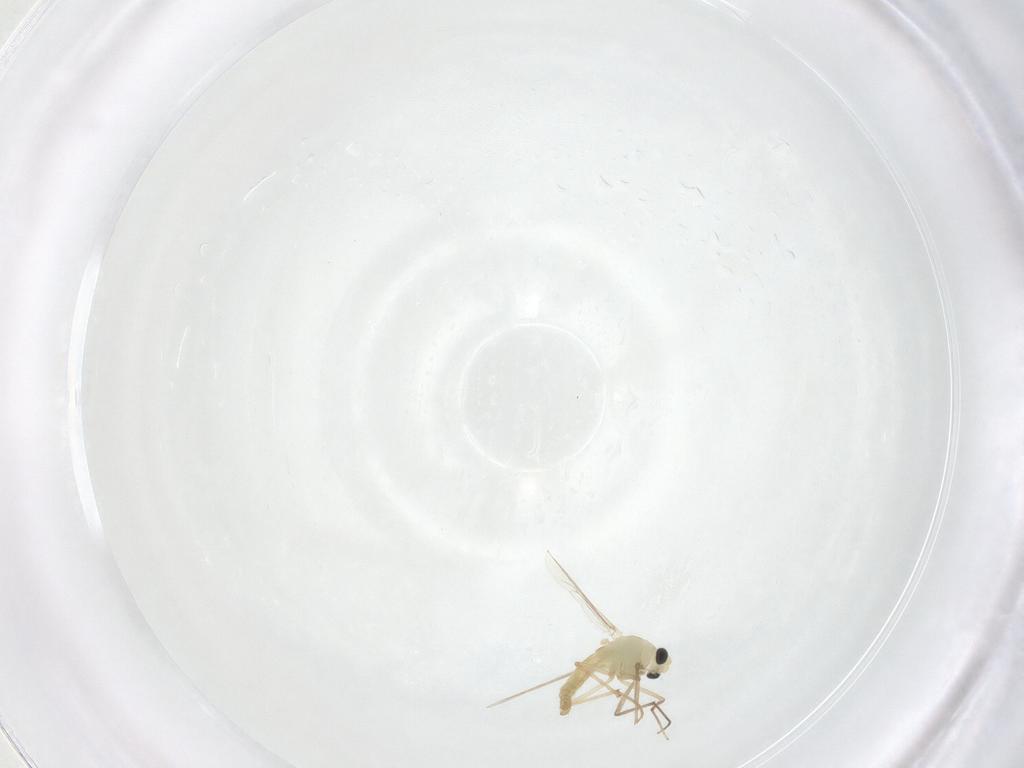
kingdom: Animalia
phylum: Arthropoda
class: Insecta
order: Diptera
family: Chironomidae
